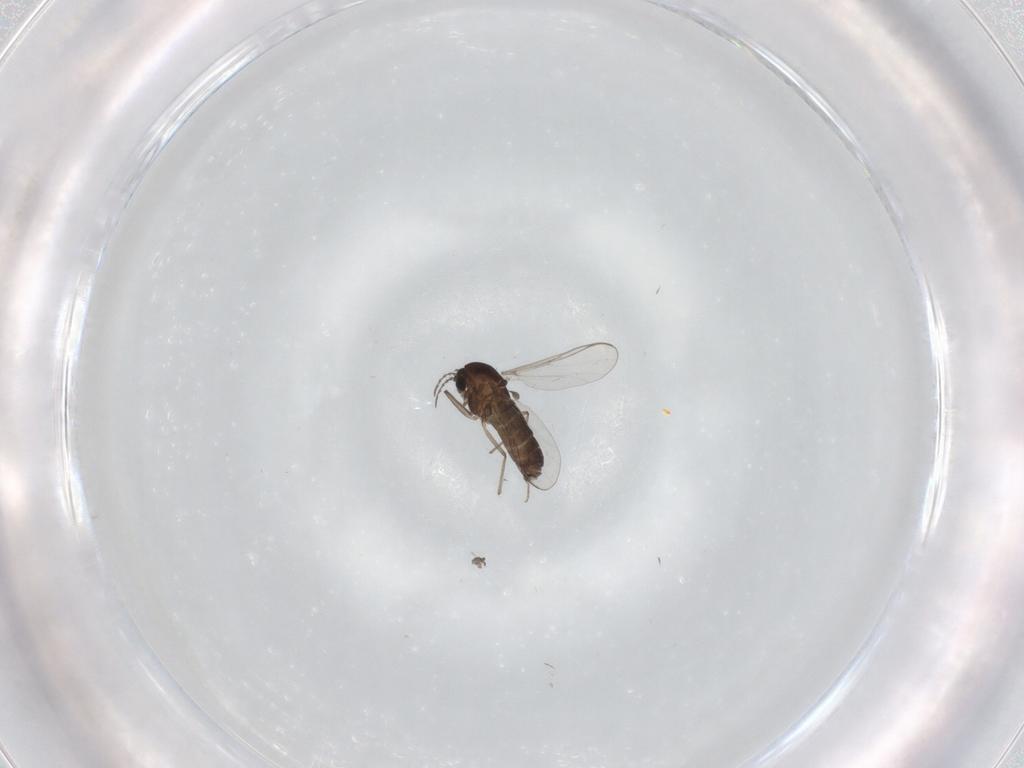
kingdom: Animalia
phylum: Arthropoda
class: Insecta
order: Diptera
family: Chironomidae
